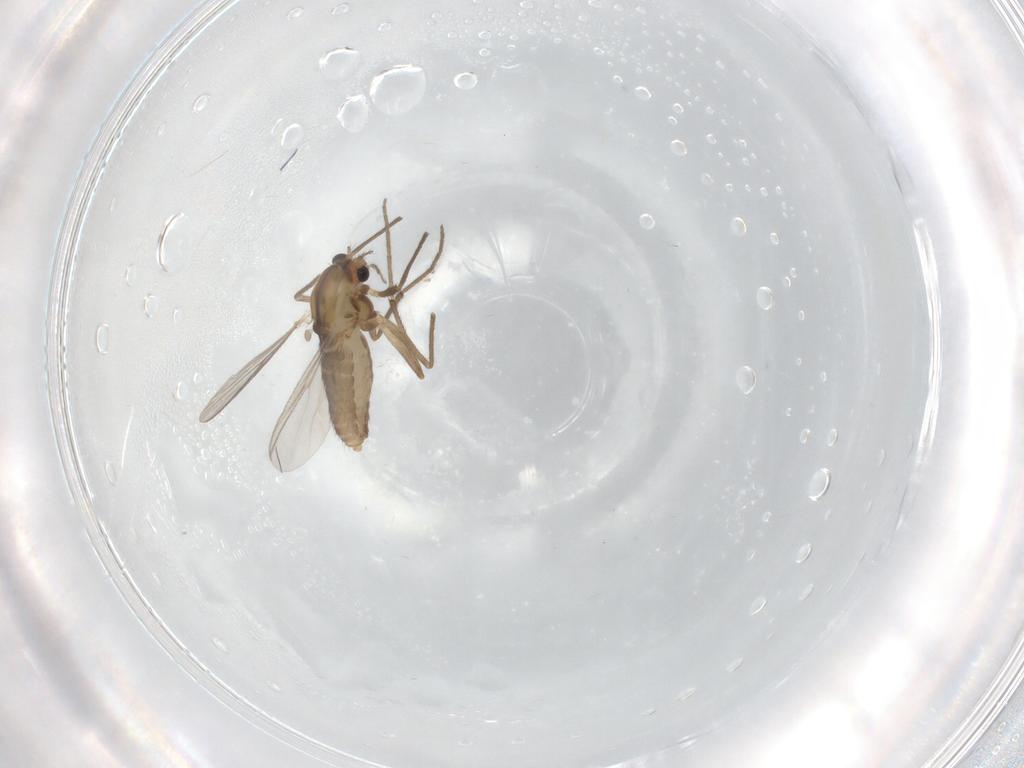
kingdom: Animalia
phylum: Arthropoda
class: Insecta
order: Diptera
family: Chironomidae
